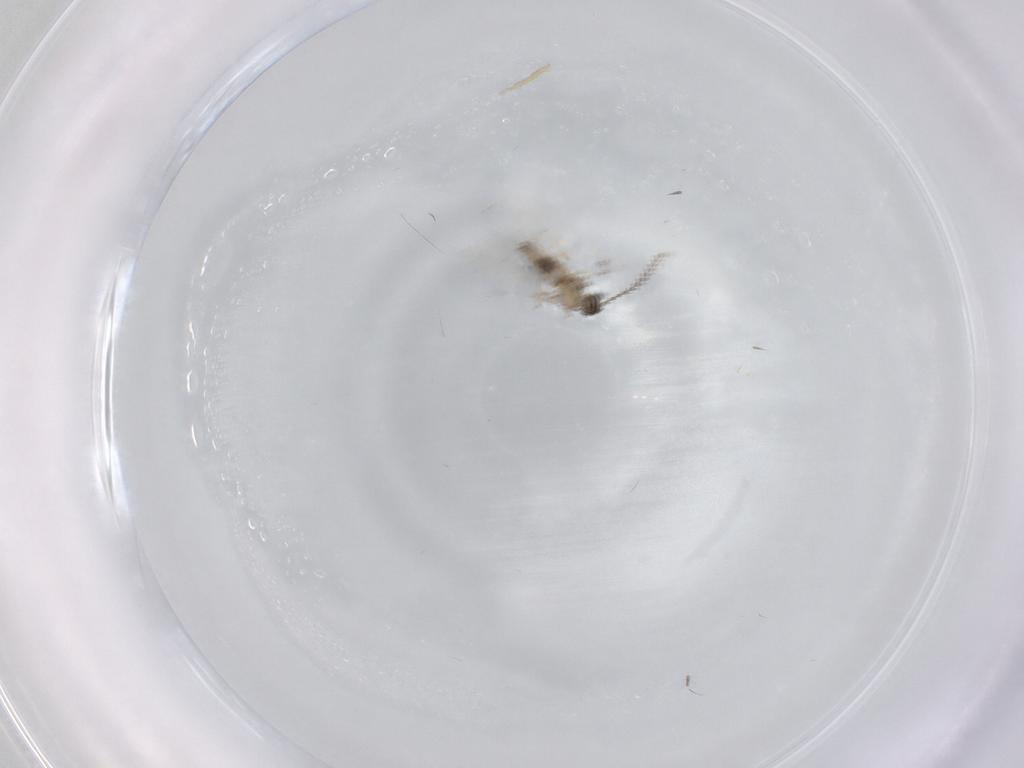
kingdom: Animalia
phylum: Arthropoda
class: Insecta
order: Diptera
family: Cecidomyiidae
